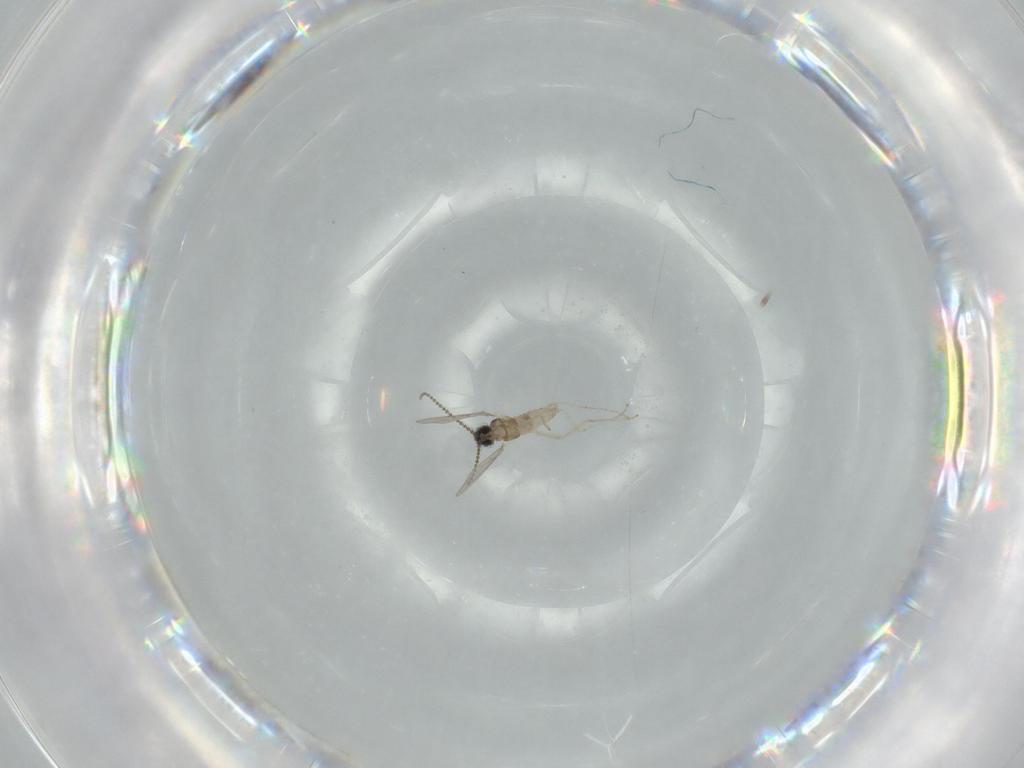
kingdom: Animalia
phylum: Arthropoda
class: Insecta
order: Diptera
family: Cecidomyiidae
